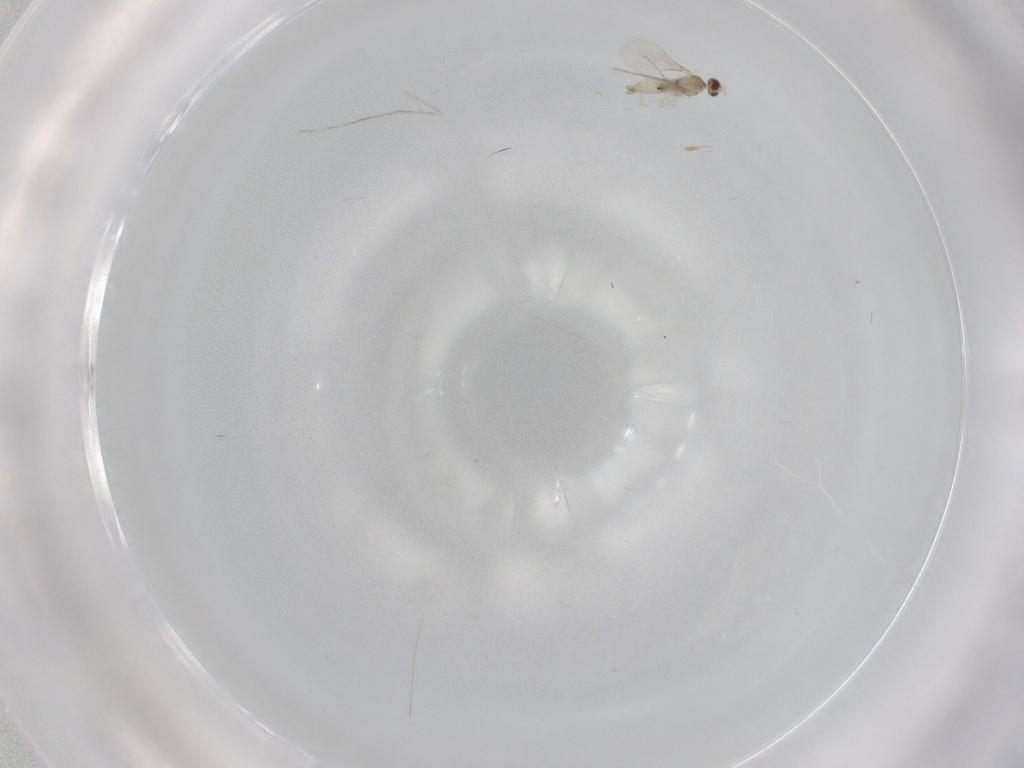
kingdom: Animalia
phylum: Arthropoda
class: Insecta
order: Diptera
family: Cecidomyiidae
